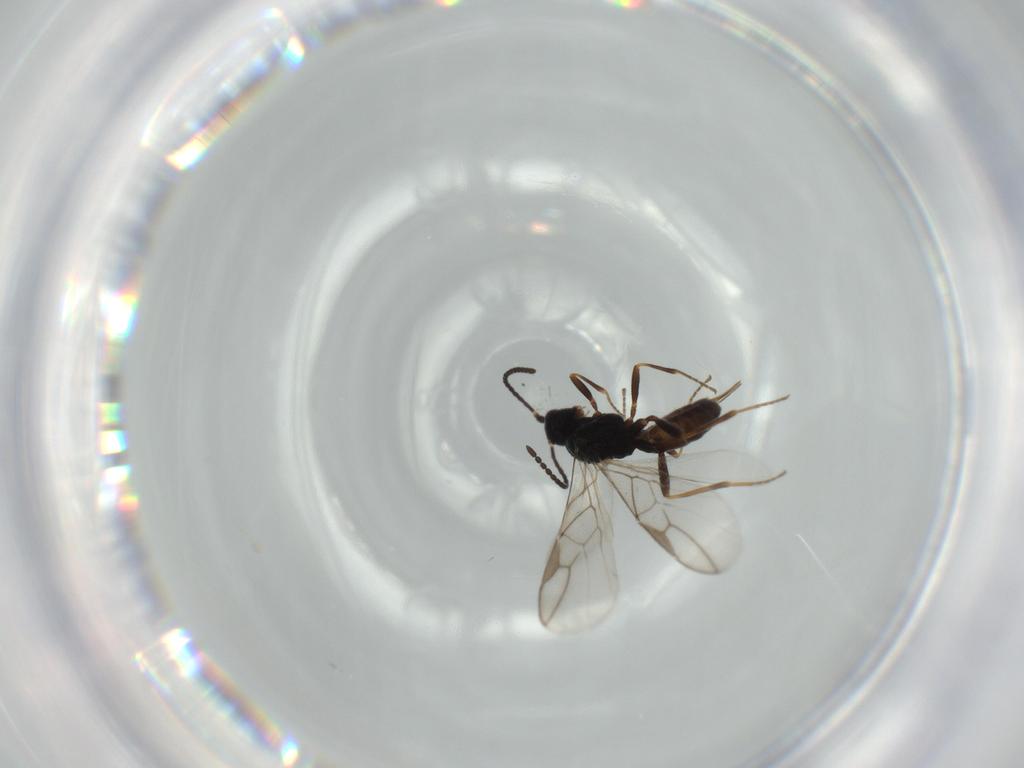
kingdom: Animalia
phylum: Arthropoda
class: Insecta
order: Hymenoptera
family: Braconidae
